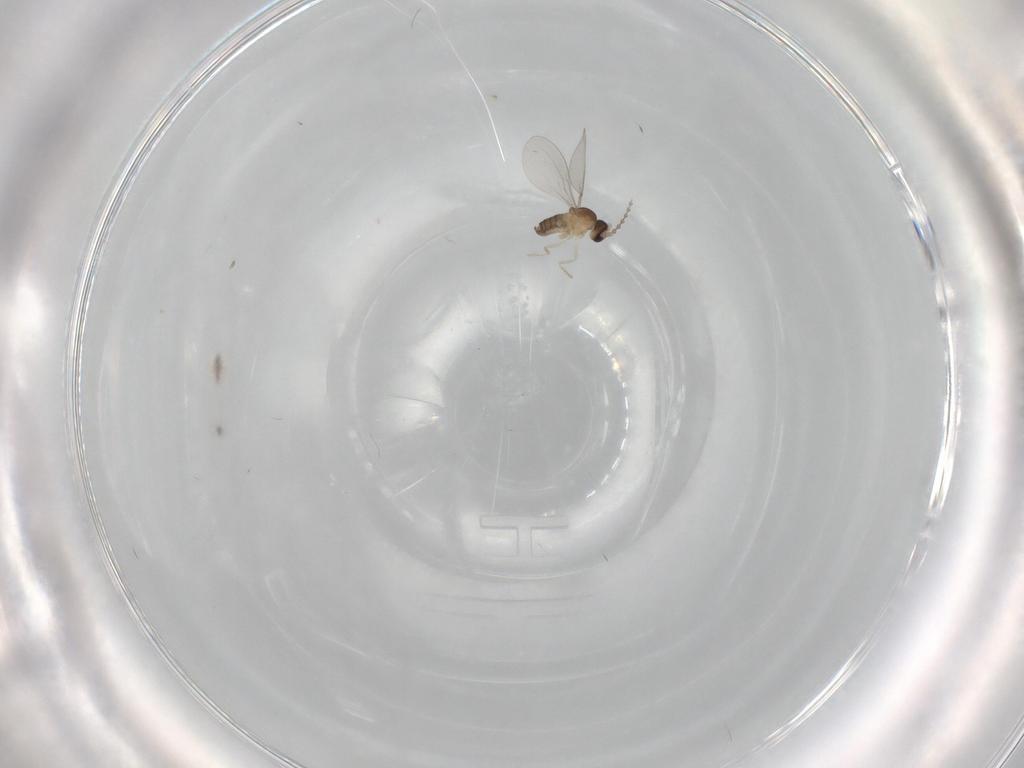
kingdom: Animalia
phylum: Arthropoda
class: Insecta
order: Diptera
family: Cecidomyiidae
